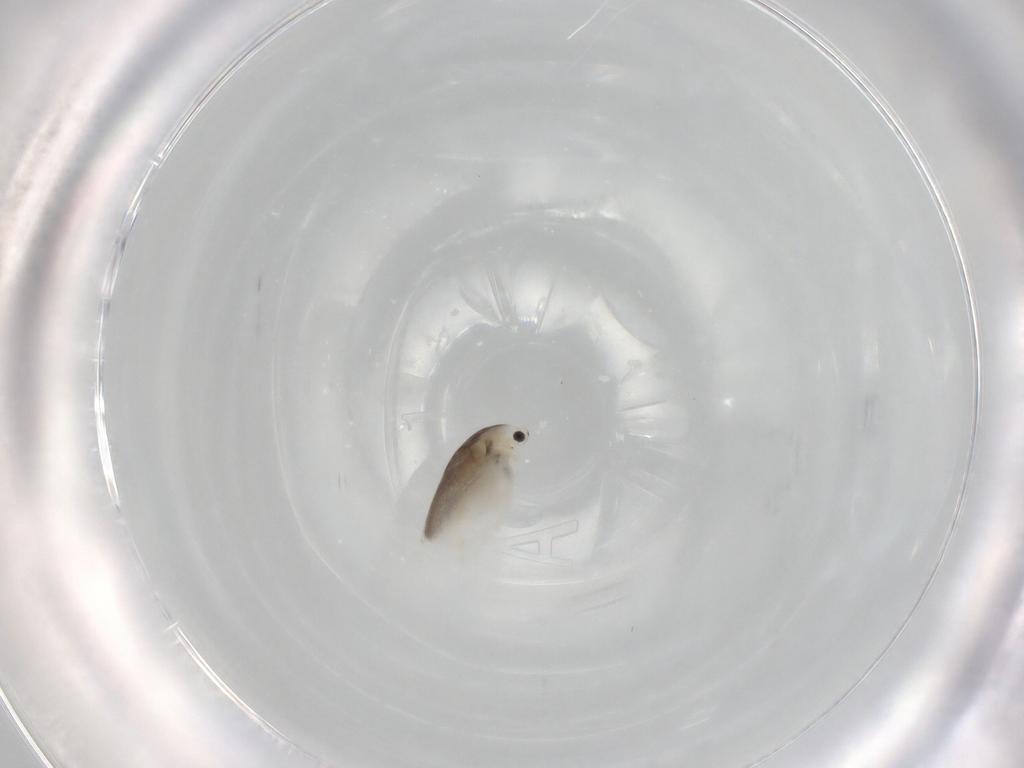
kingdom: Animalia
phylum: Arthropoda
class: Branchiopoda
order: Diplostraca
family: Daphniidae
